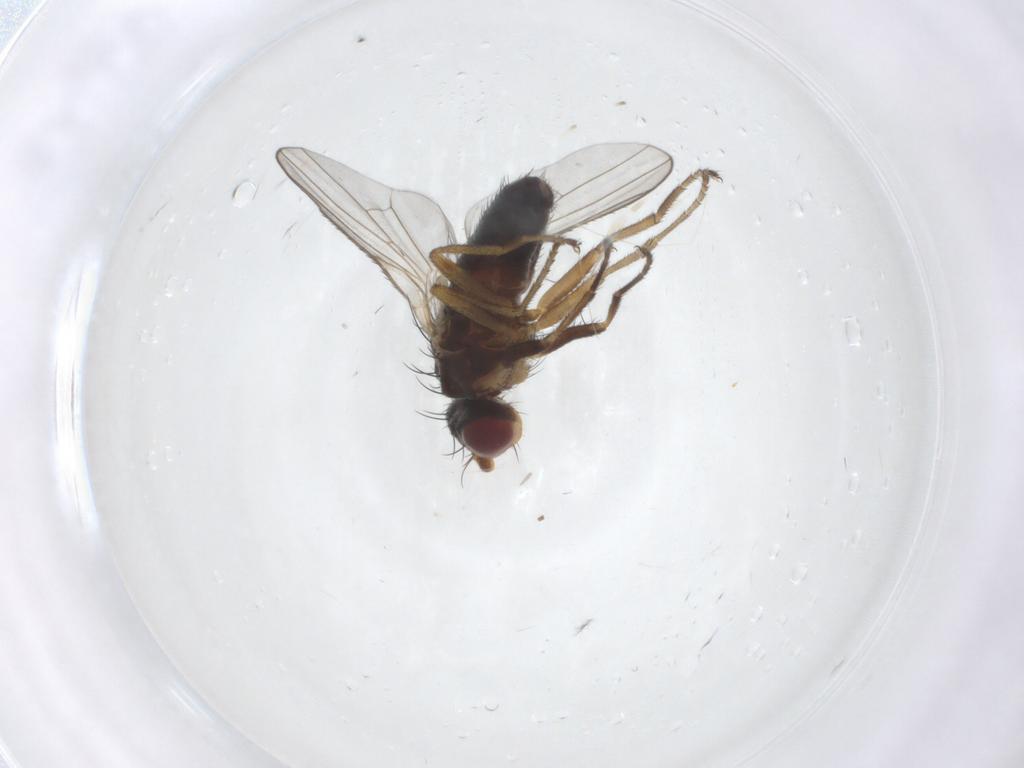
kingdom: Animalia
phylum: Arthropoda
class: Insecta
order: Diptera
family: Heleomyzidae
